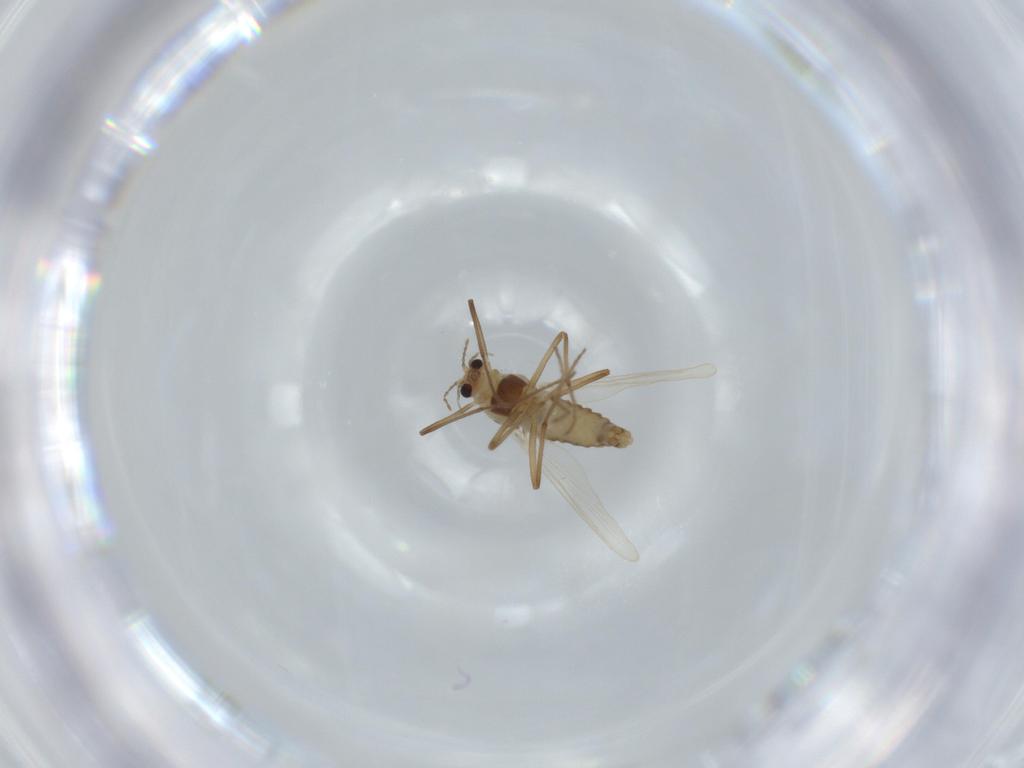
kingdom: Animalia
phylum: Arthropoda
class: Insecta
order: Diptera
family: Chironomidae
